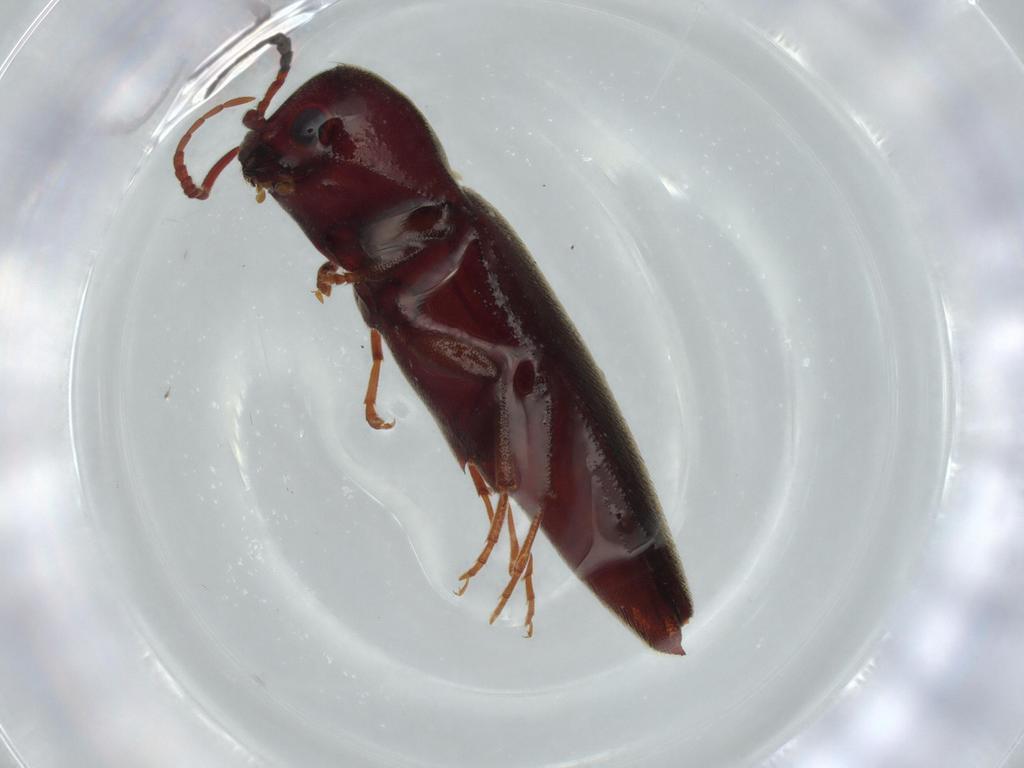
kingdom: Animalia
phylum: Arthropoda
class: Insecta
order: Coleoptera
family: Eucnemidae
